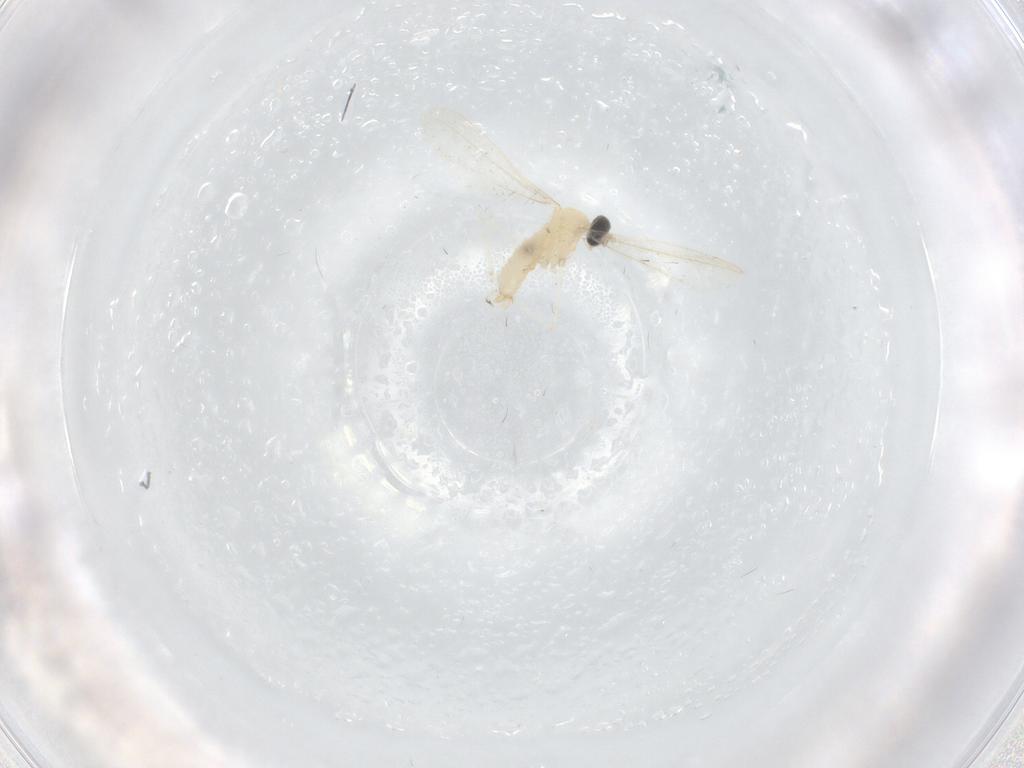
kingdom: Animalia
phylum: Arthropoda
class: Insecta
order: Diptera
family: Cecidomyiidae
